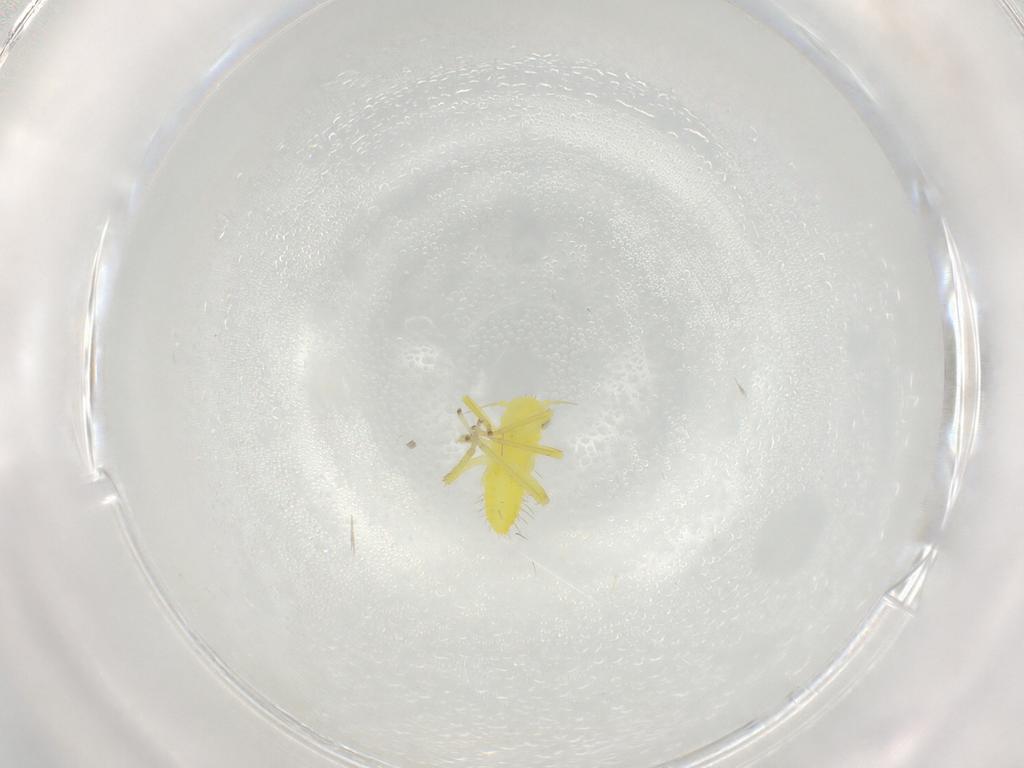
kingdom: Animalia
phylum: Arthropoda
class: Insecta
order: Hemiptera
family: Cicadellidae
